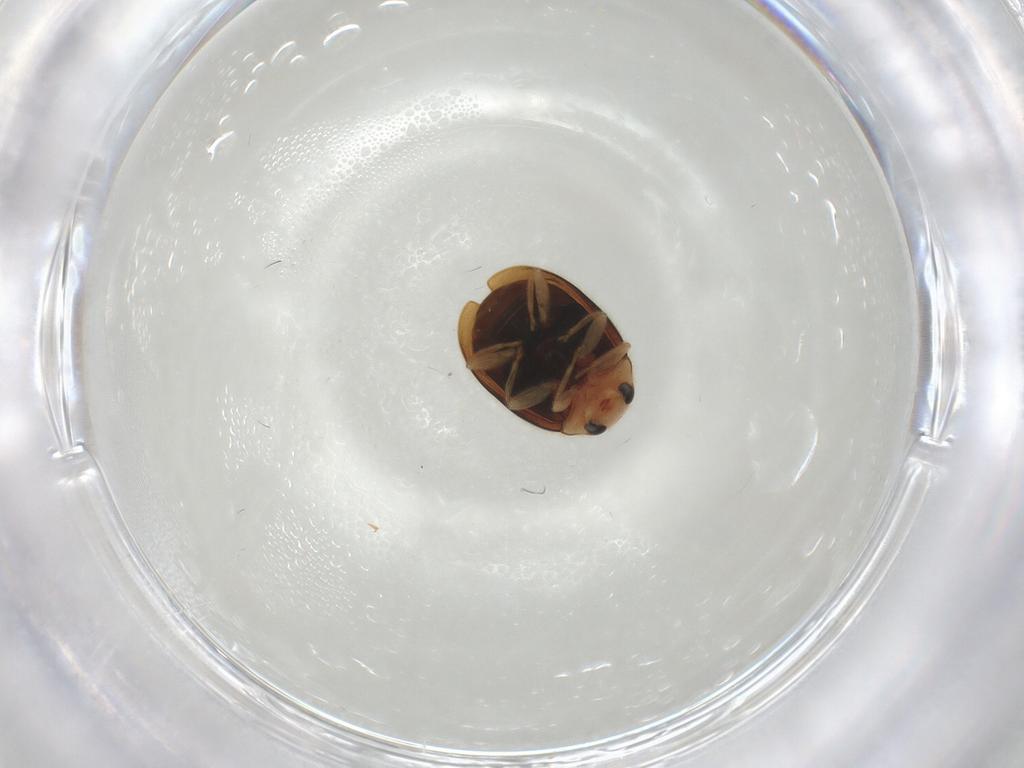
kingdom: Animalia
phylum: Arthropoda
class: Insecta
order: Coleoptera
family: Coccinellidae
